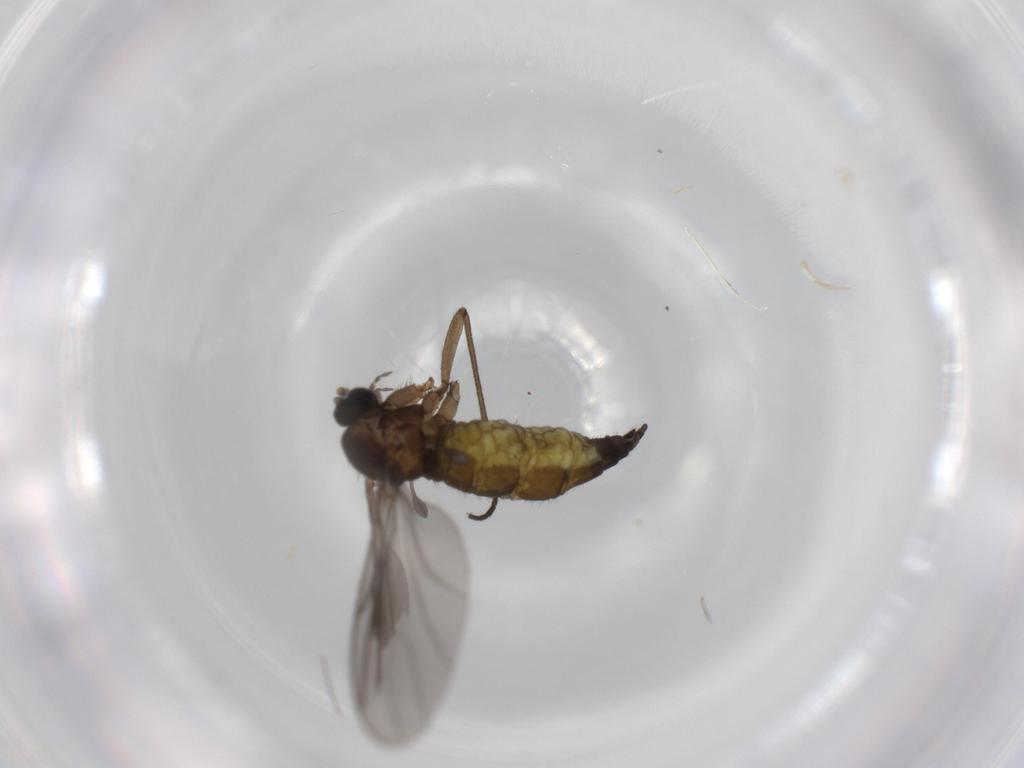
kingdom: Animalia
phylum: Arthropoda
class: Insecta
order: Diptera
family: Sciaridae
